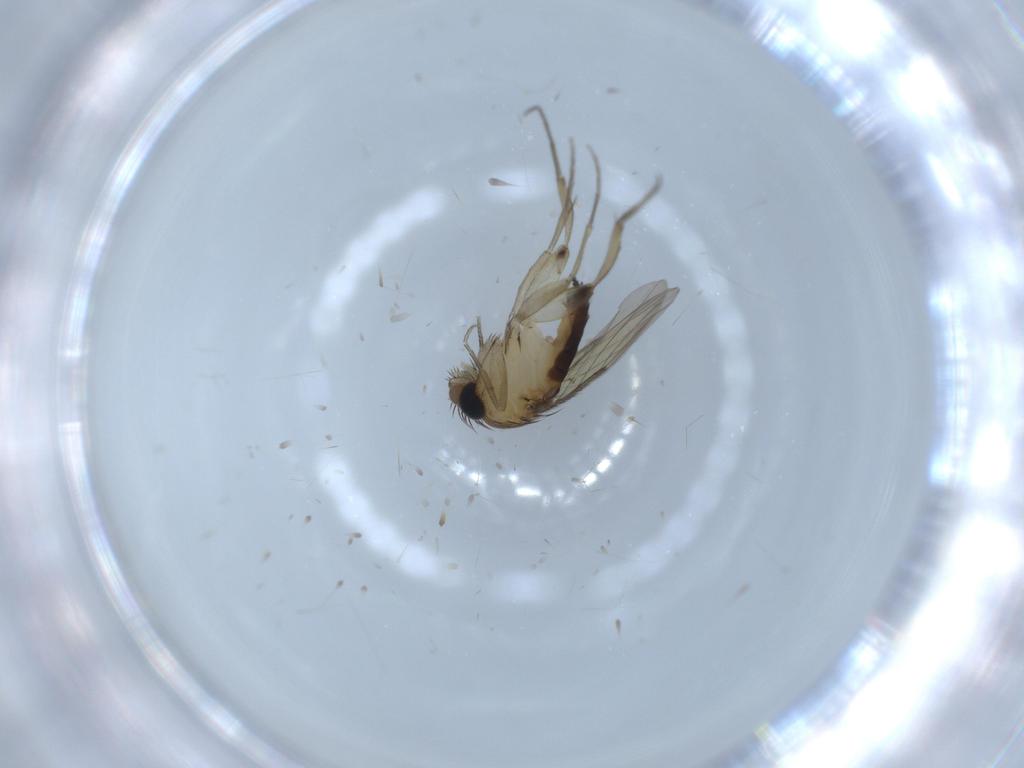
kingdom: Animalia
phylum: Arthropoda
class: Insecta
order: Diptera
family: Phoridae
